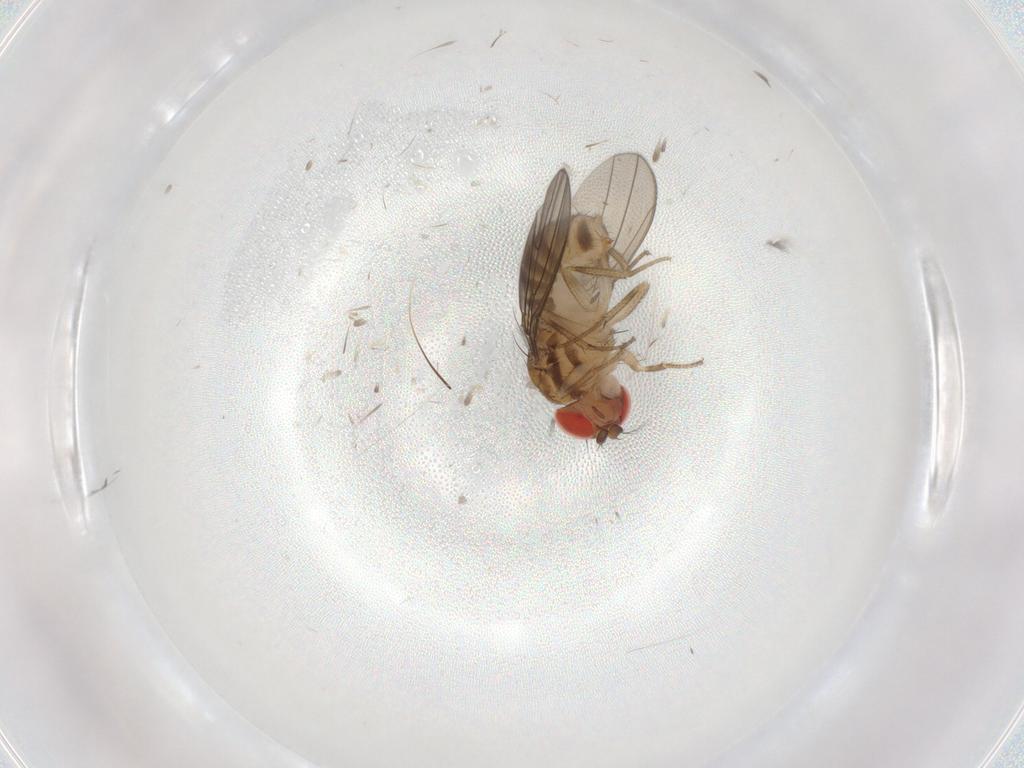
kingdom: Animalia
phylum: Arthropoda
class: Insecta
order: Diptera
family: Drosophilidae
